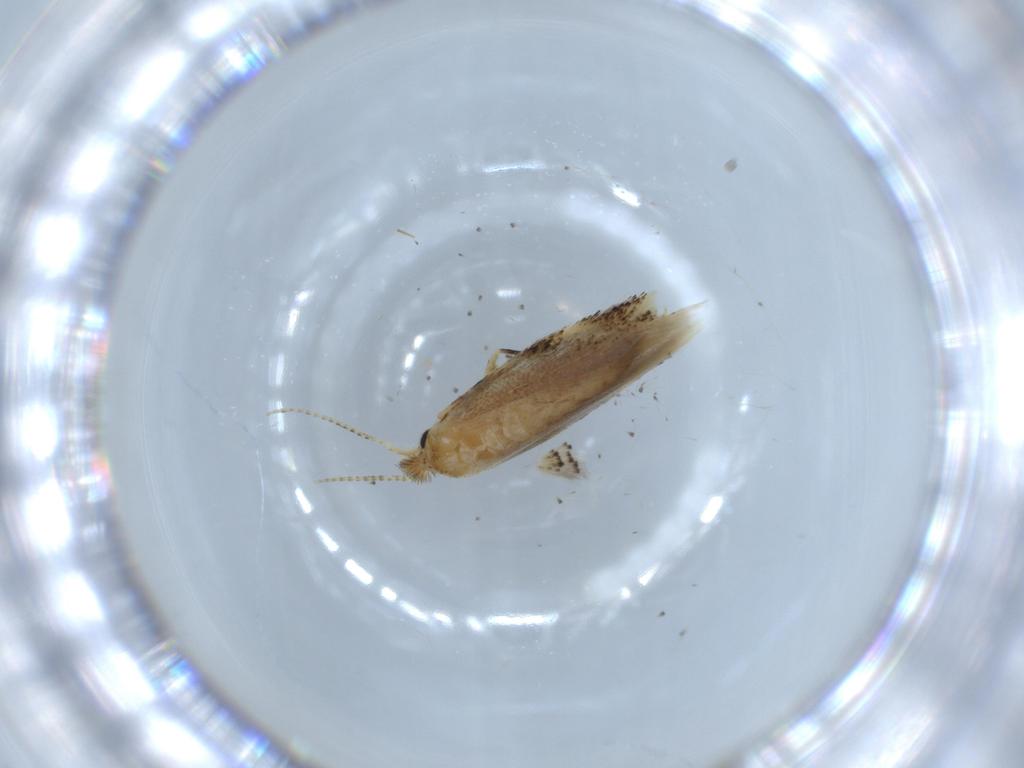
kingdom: Animalia
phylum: Arthropoda
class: Insecta
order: Lepidoptera
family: Bucculatricidae
